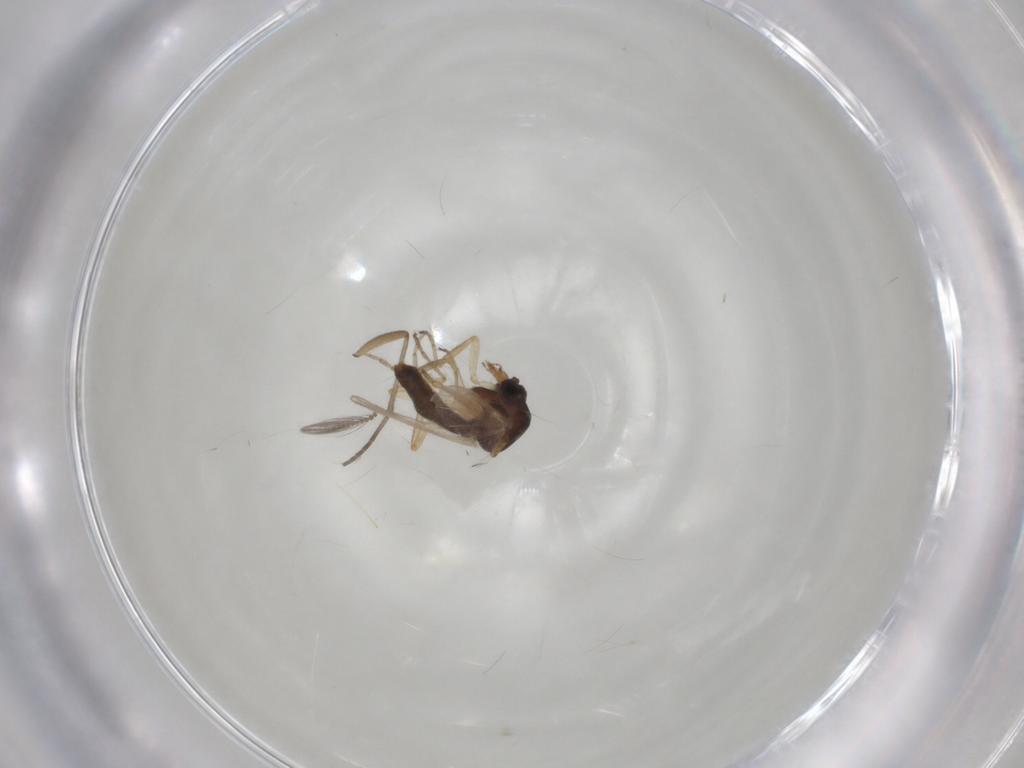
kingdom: Animalia
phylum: Arthropoda
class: Insecta
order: Diptera
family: Ceratopogonidae
